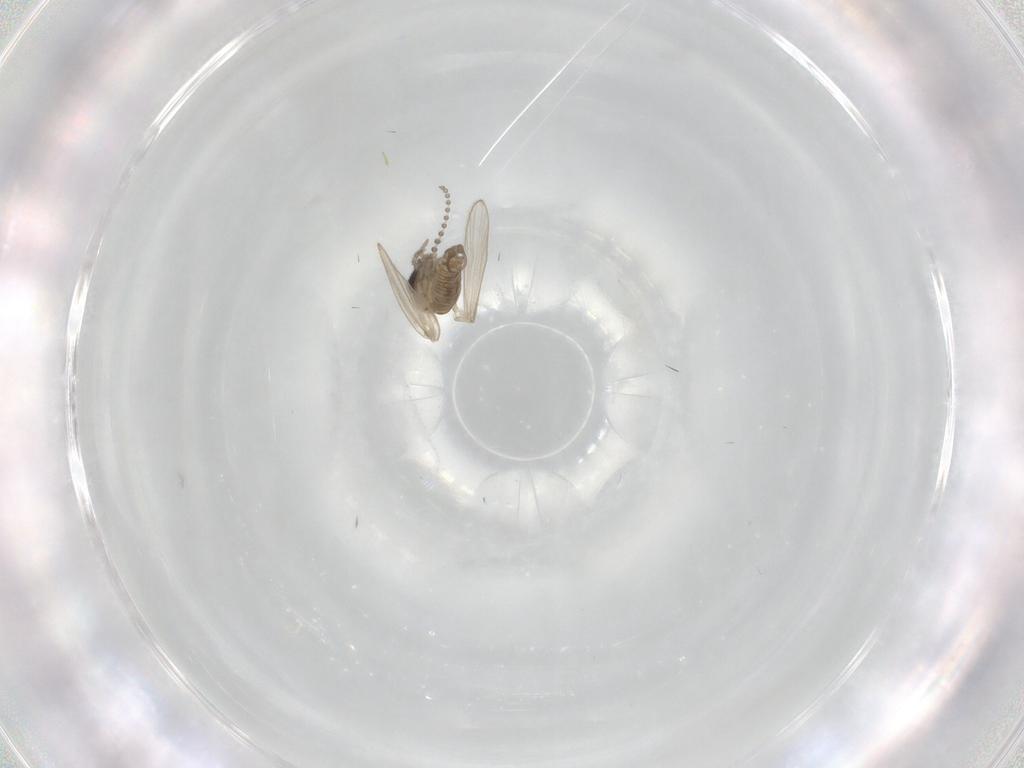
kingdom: Animalia
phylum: Arthropoda
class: Insecta
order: Diptera
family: Psychodidae
